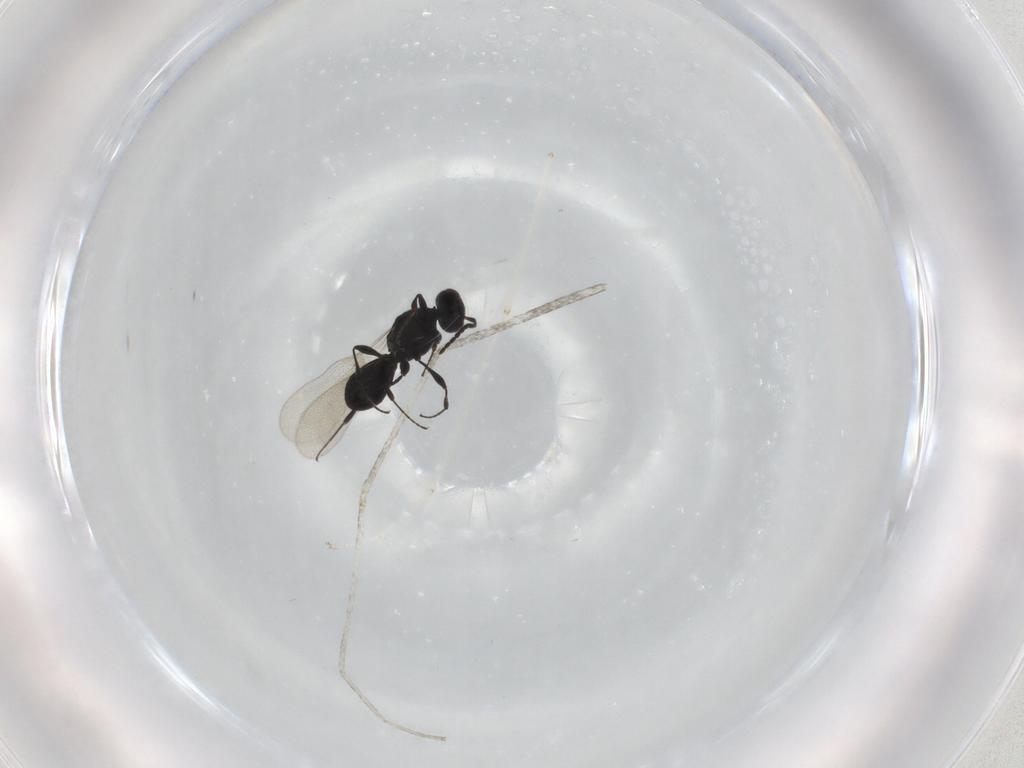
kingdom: Animalia
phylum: Arthropoda
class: Insecta
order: Hymenoptera
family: Platygastridae
